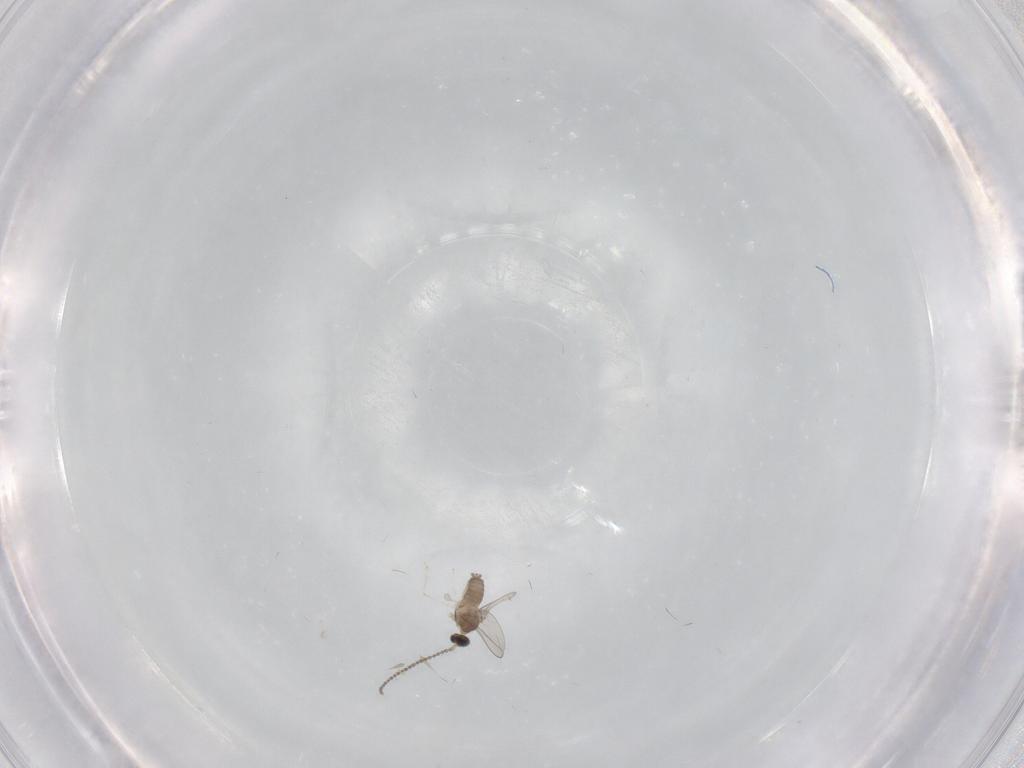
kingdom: Animalia
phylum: Arthropoda
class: Insecta
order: Diptera
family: Cecidomyiidae
